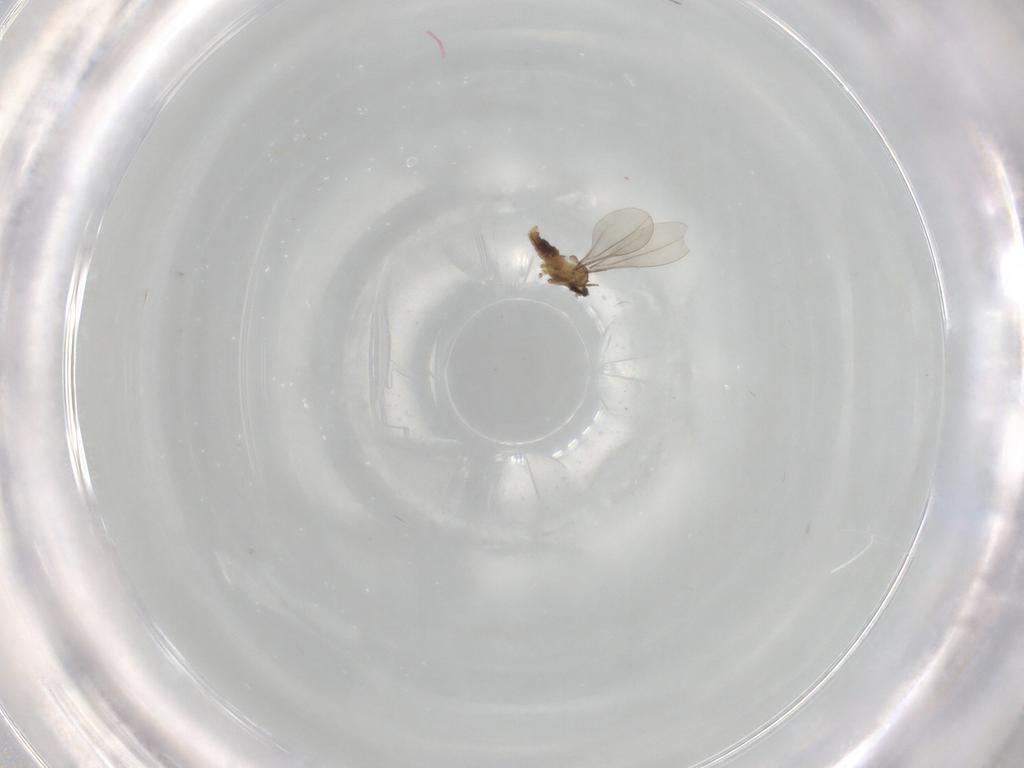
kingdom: Animalia
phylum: Arthropoda
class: Insecta
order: Diptera
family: Cecidomyiidae
